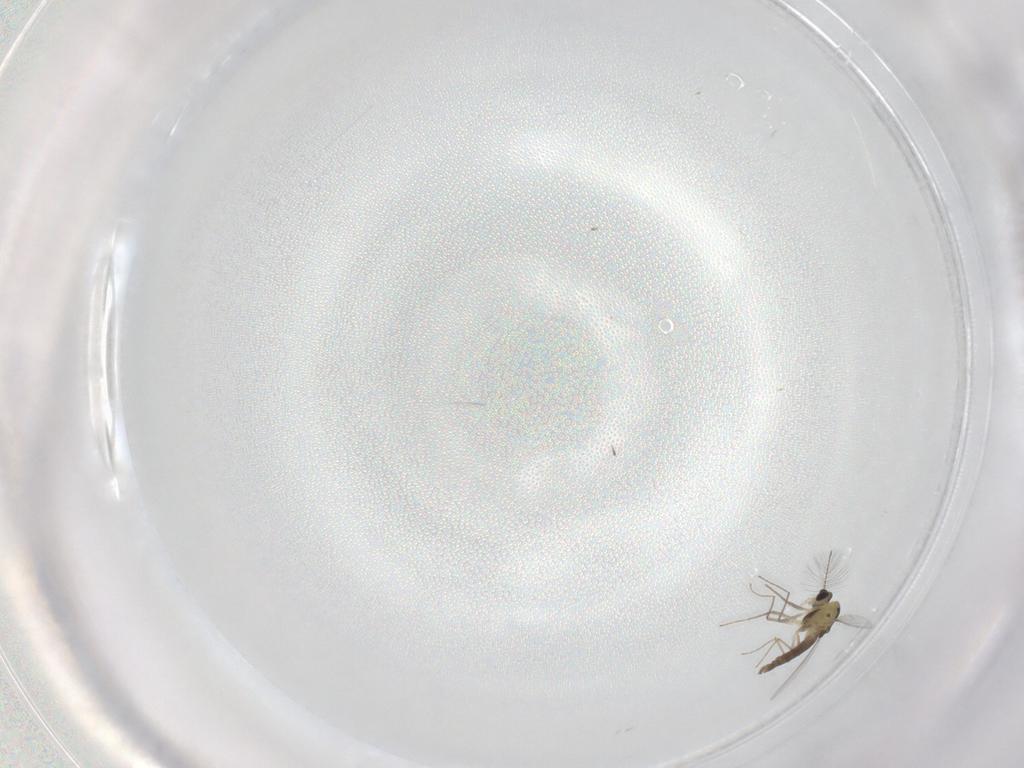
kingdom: Animalia
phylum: Arthropoda
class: Insecta
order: Diptera
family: Chironomidae
